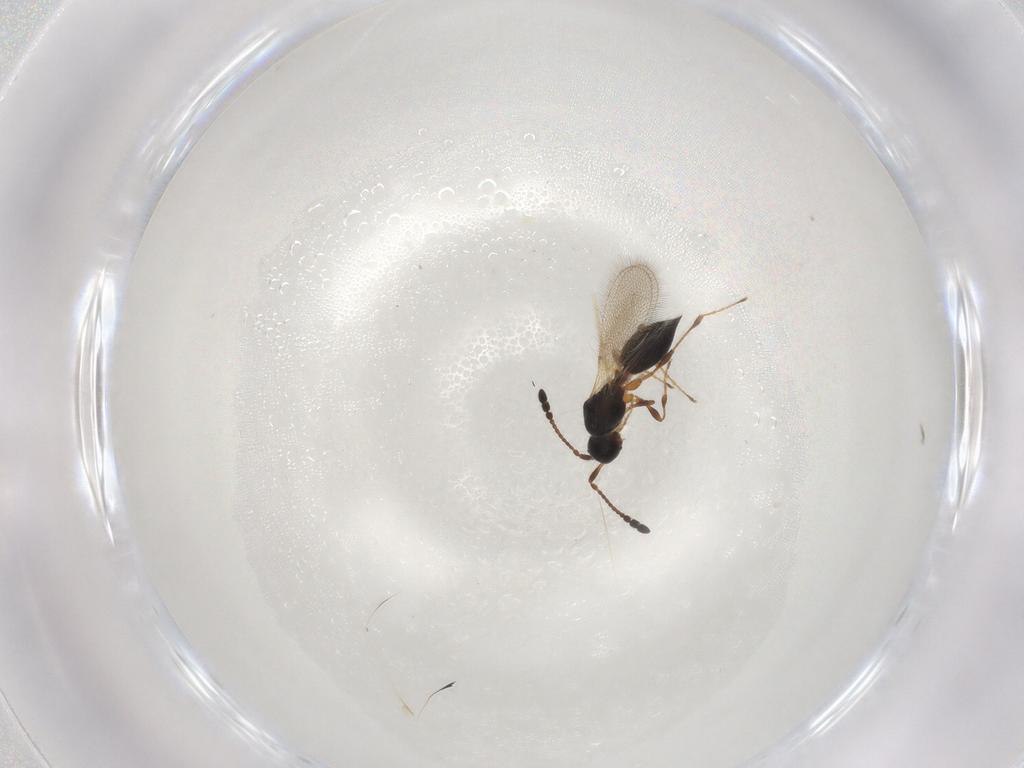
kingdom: Animalia
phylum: Arthropoda
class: Insecta
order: Hymenoptera
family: Diapriidae
